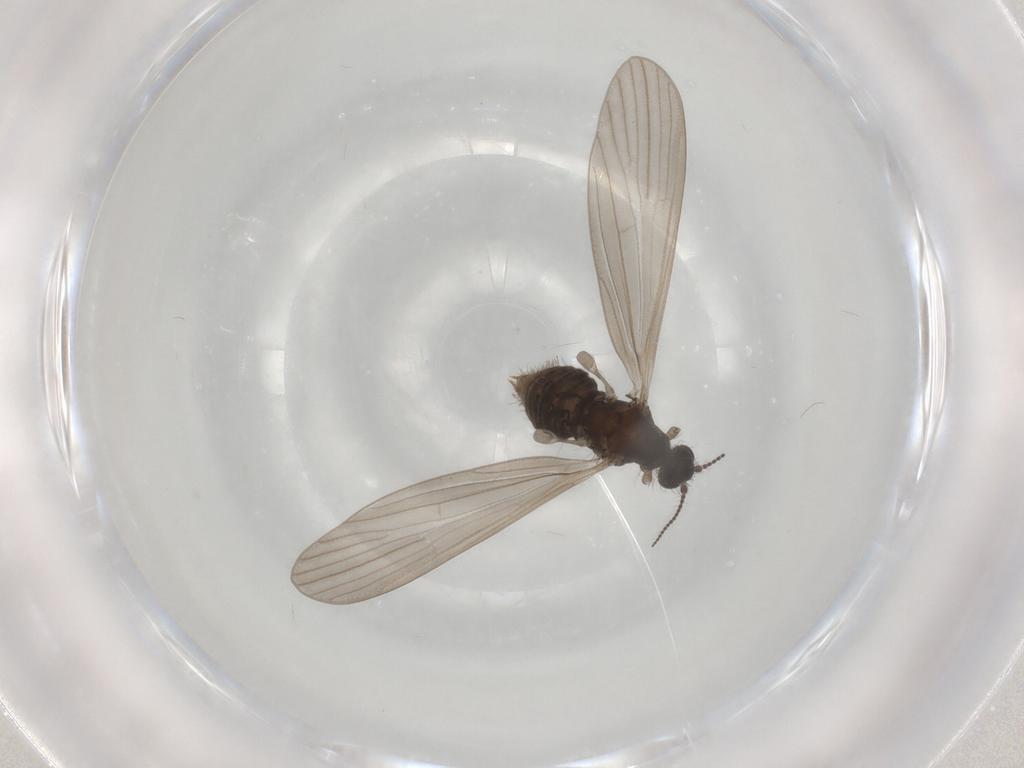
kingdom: Animalia
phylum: Arthropoda
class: Insecta
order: Diptera
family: Limoniidae
